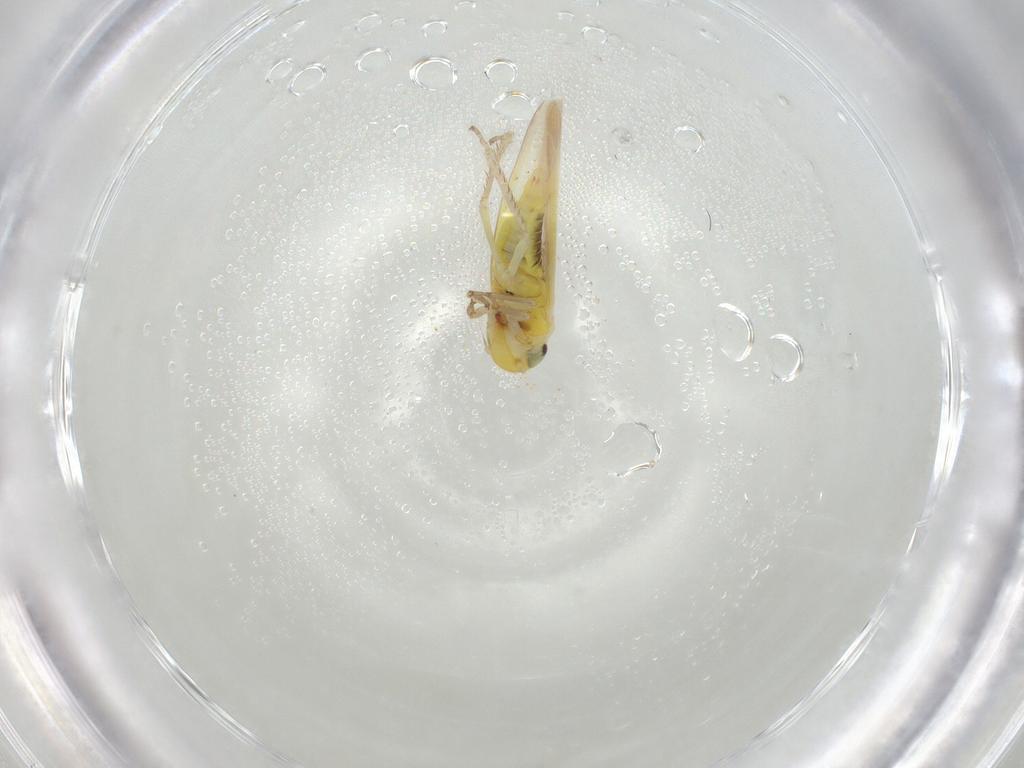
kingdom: Animalia
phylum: Arthropoda
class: Insecta
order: Hemiptera
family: Cicadellidae
